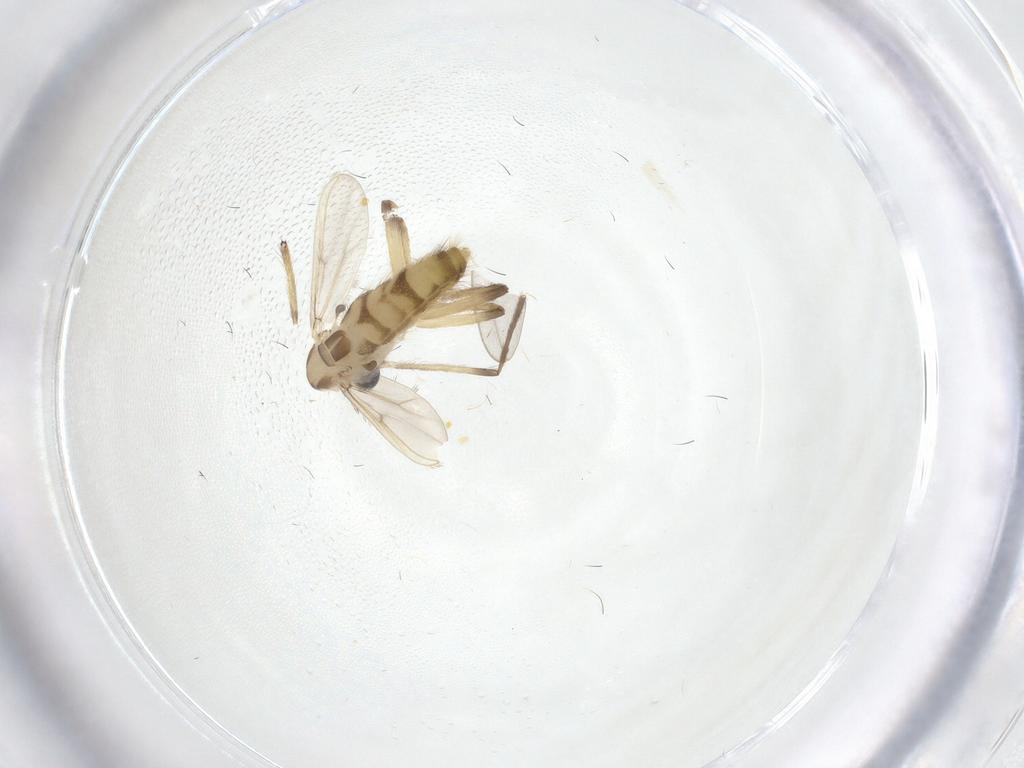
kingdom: Animalia
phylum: Arthropoda
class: Insecta
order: Diptera
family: Chironomidae
